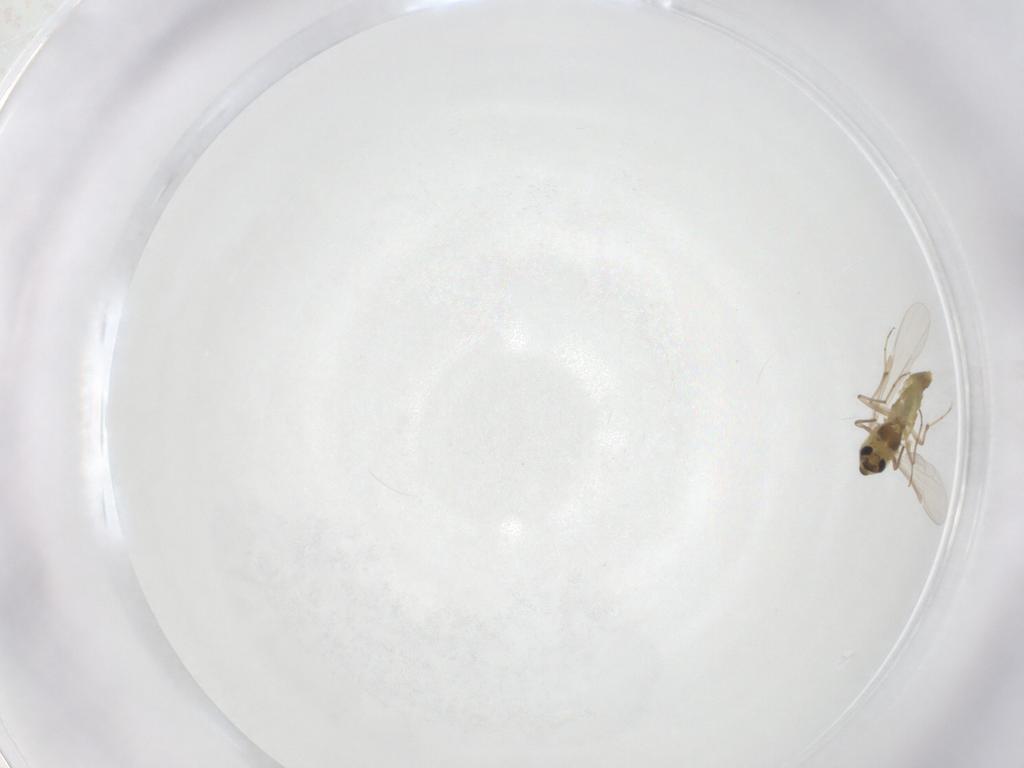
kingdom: Animalia
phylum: Arthropoda
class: Insecta
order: Diptera
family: Chironomidae
